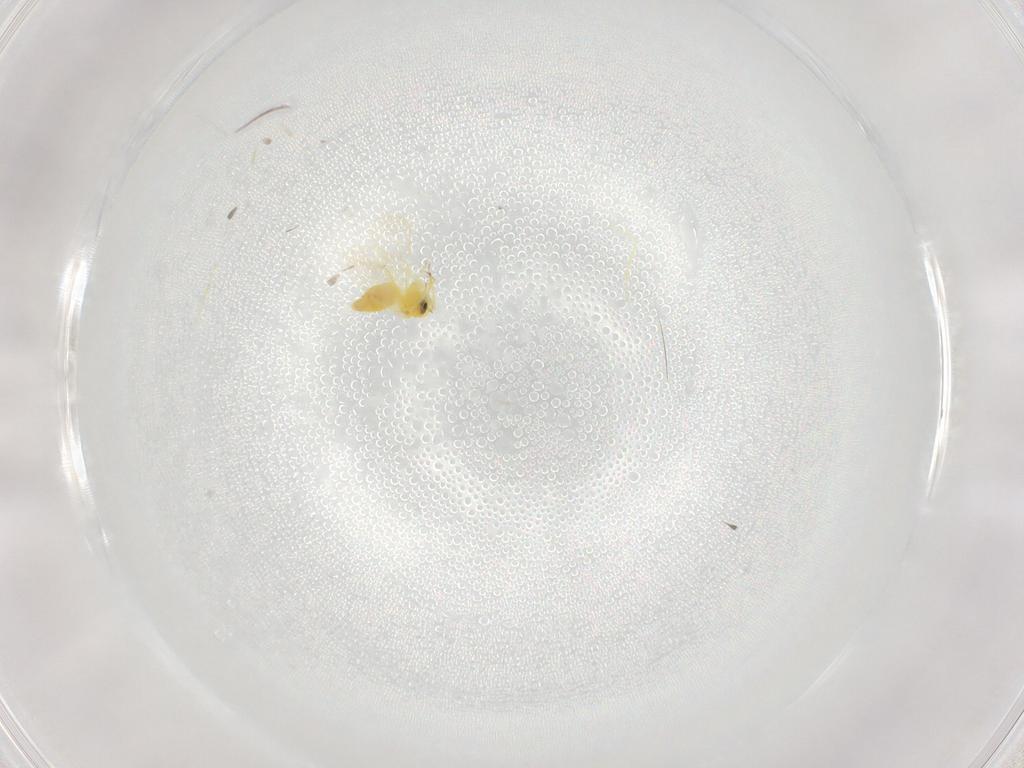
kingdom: Animalia
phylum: Arthropoda
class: Insecta
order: Hemiptera
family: Aleyrodidae
